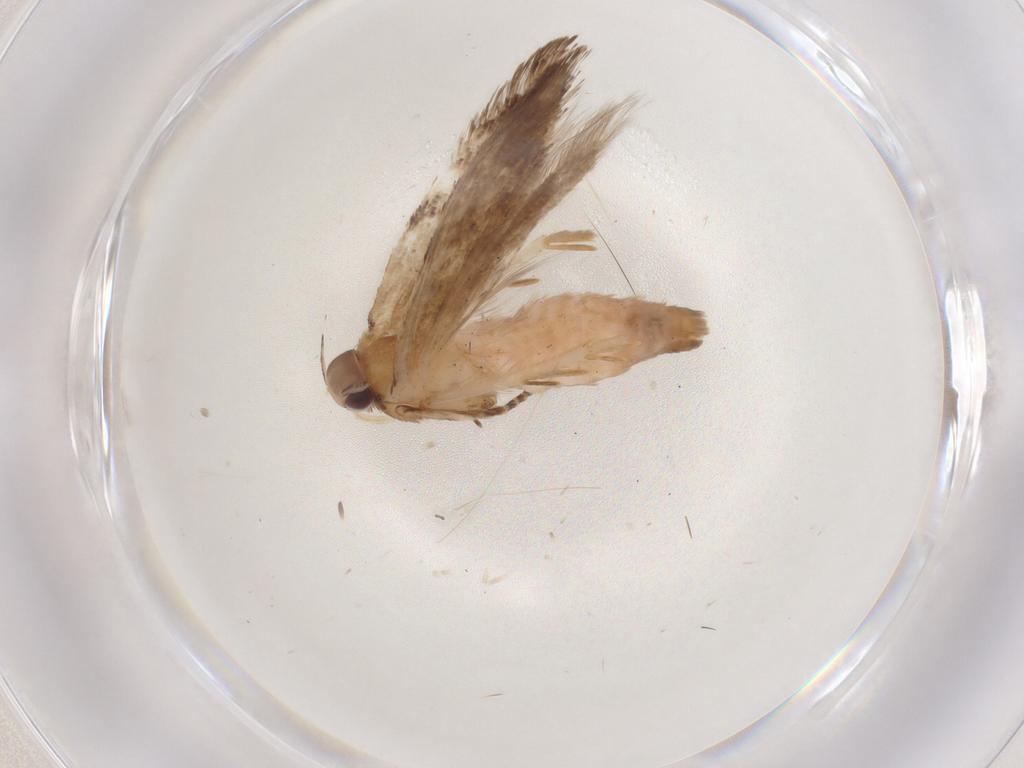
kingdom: Animalia
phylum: Arthropoda
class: Insecta
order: Lepidoptera
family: Gelechiidae
